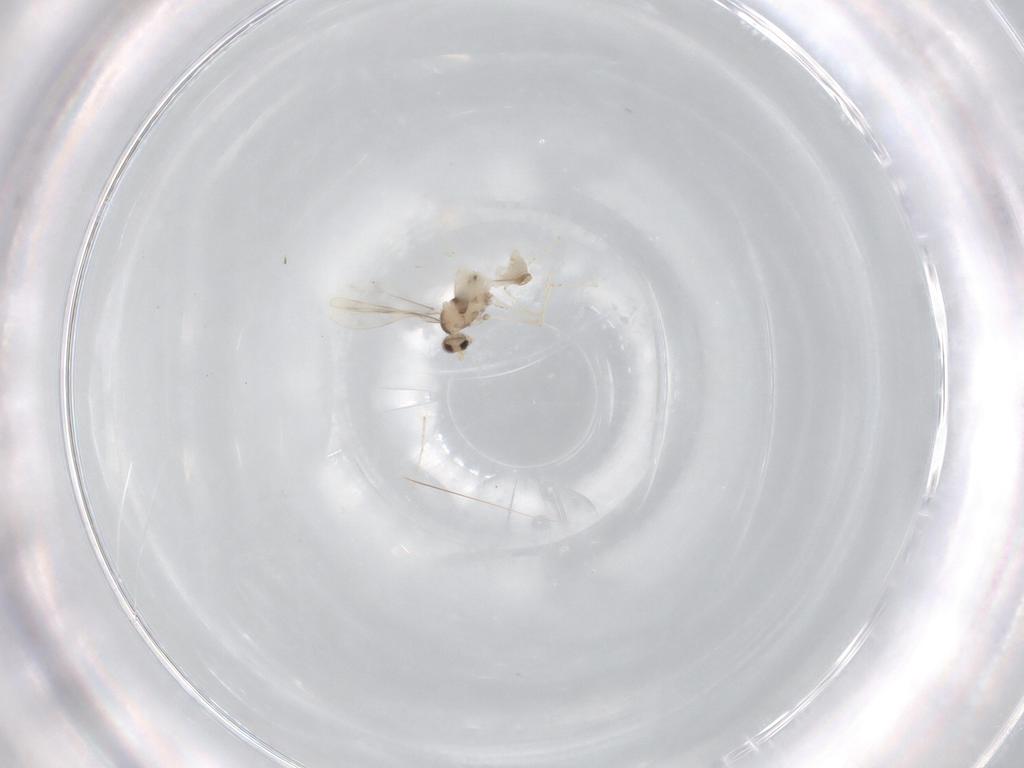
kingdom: Animalia
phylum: Arthropoda
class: Insecta
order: Diptera
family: Cecidomyiidae
